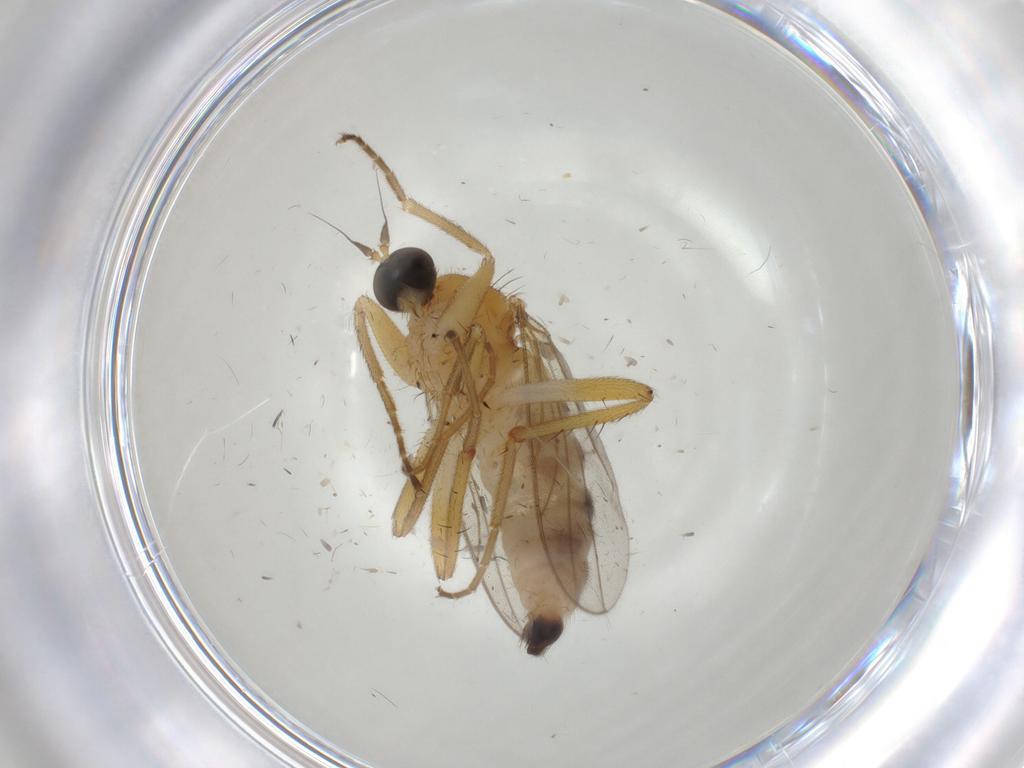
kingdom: Animalia
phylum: Arthropoda
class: Insecta
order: Diptera
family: Hybotidae
